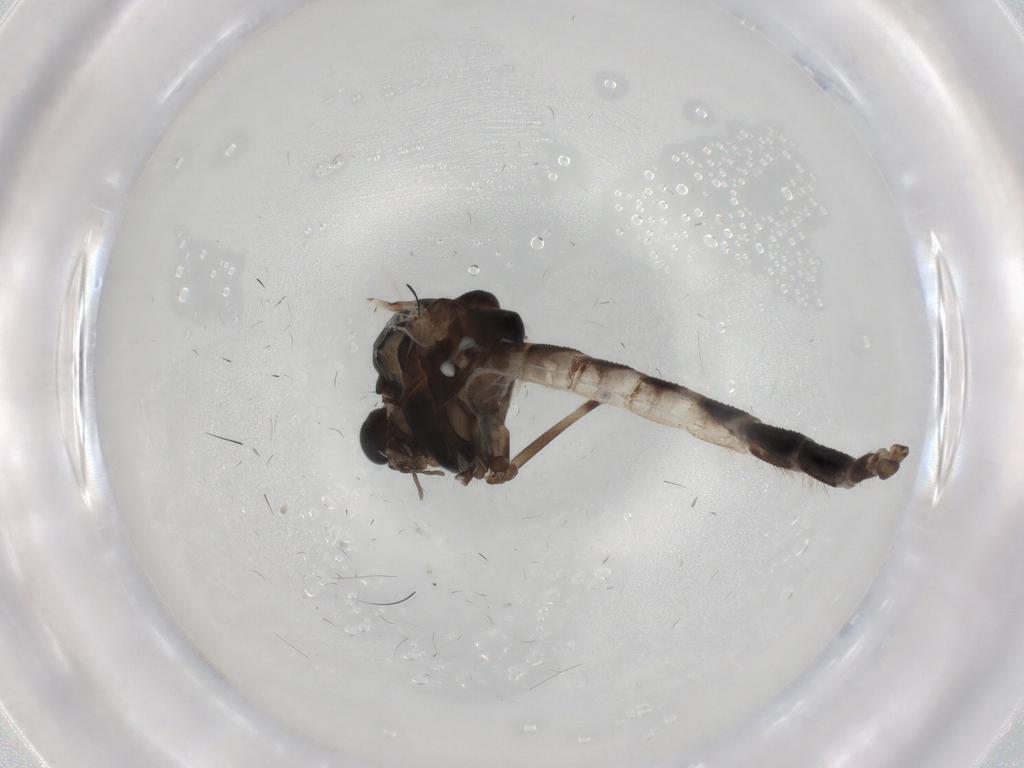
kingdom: Animalia
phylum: Arthropoda
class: Insecta
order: Diptera
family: Empididae
